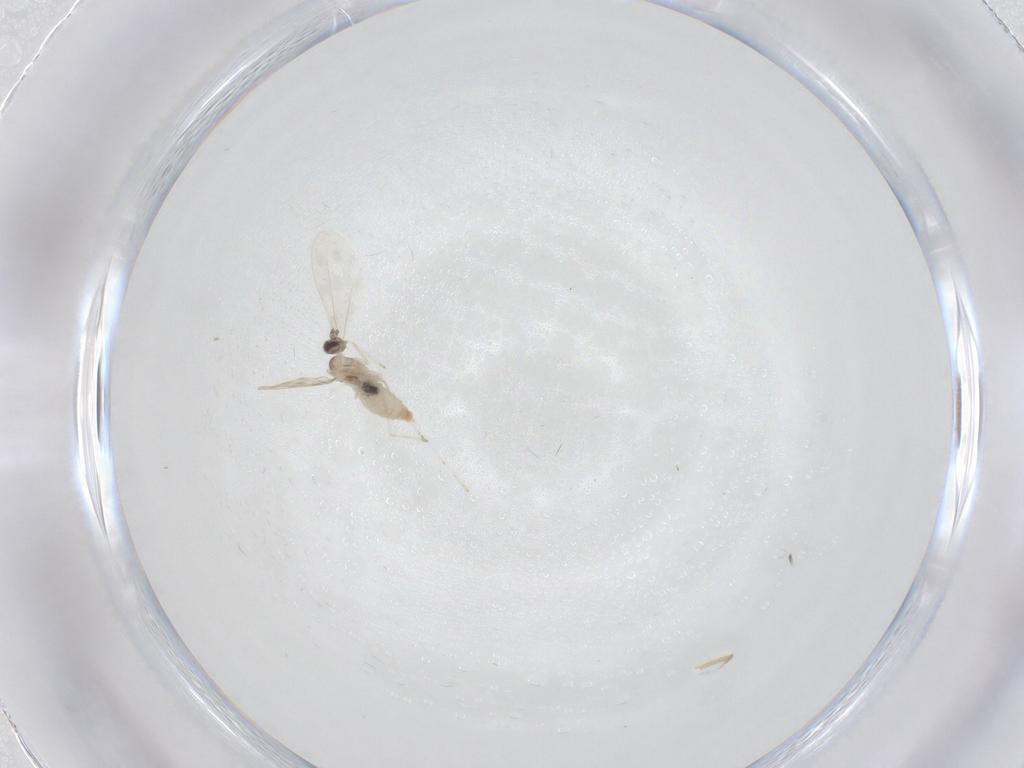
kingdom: Animalia
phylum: Arthropoda
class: Insecta
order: Diptera
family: Cecidomyiidae
